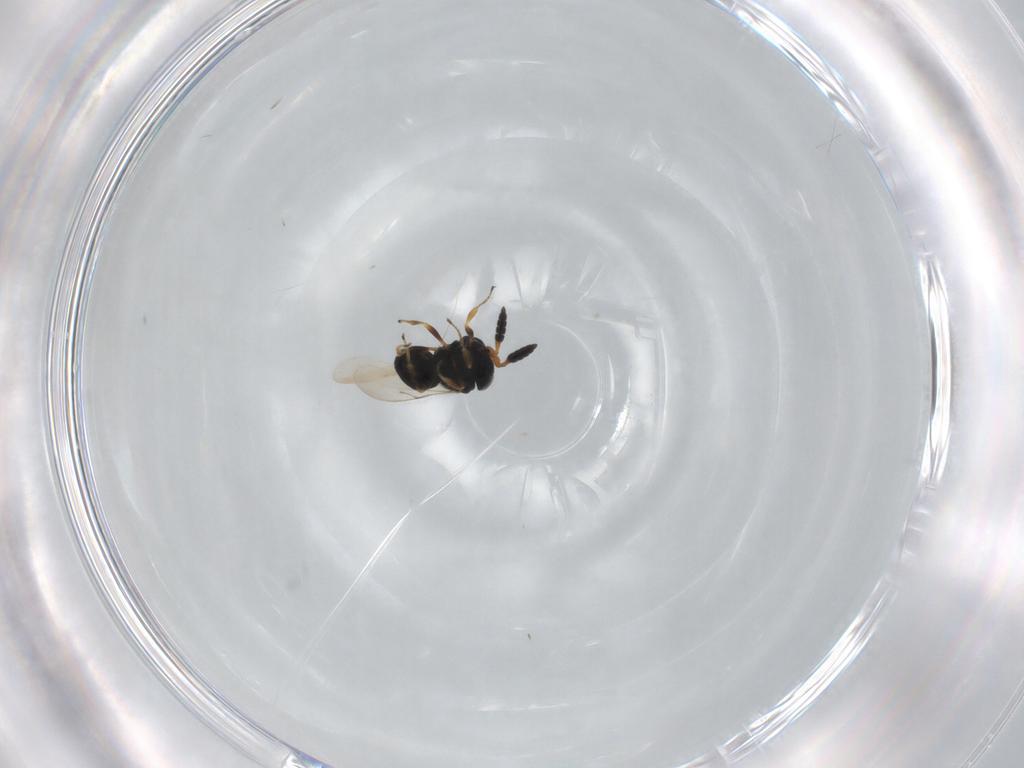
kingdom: Animalia
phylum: Arthropoda
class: Insecta
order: Hymenoptera
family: Scelionidae
